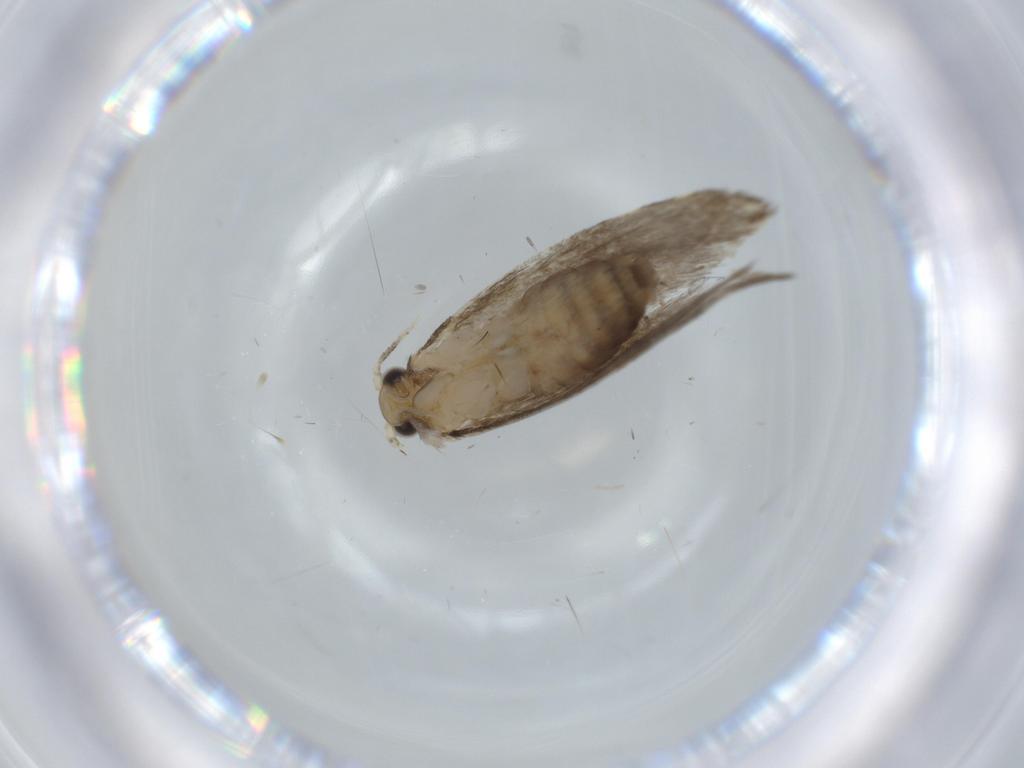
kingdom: Animalia
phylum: Arthropoda
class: Insecta
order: Lepidoptera
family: Tineidae
